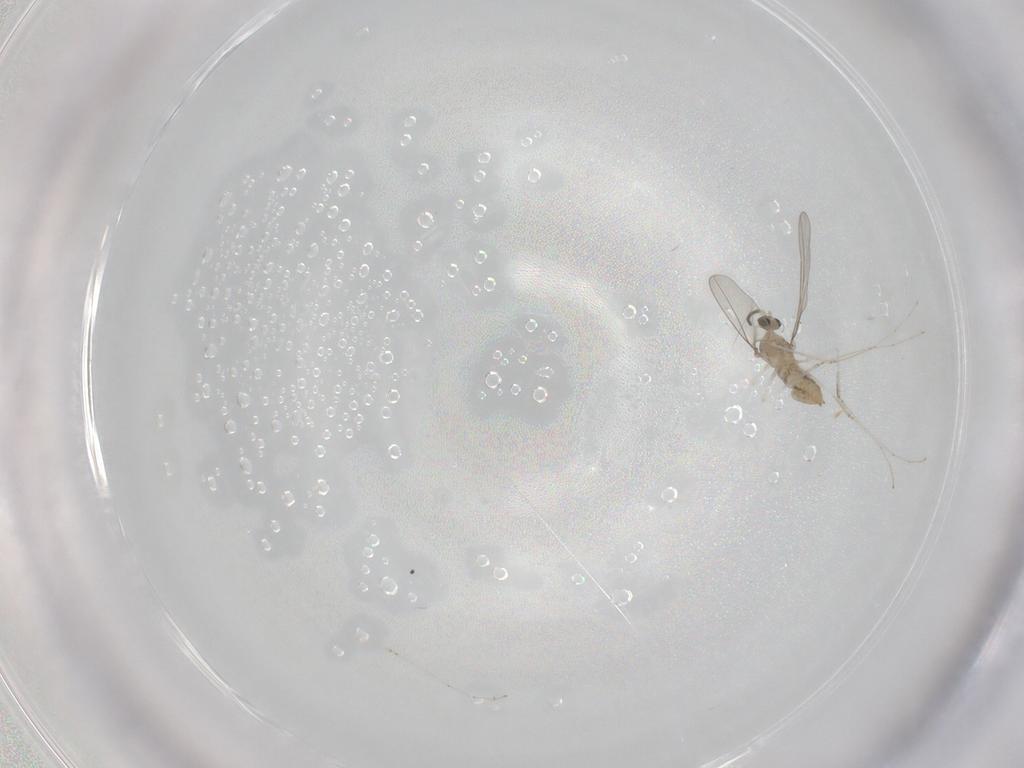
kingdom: Animalia
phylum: Arthropoda
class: Insecta
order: Diptera
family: Cecidomyiidae
